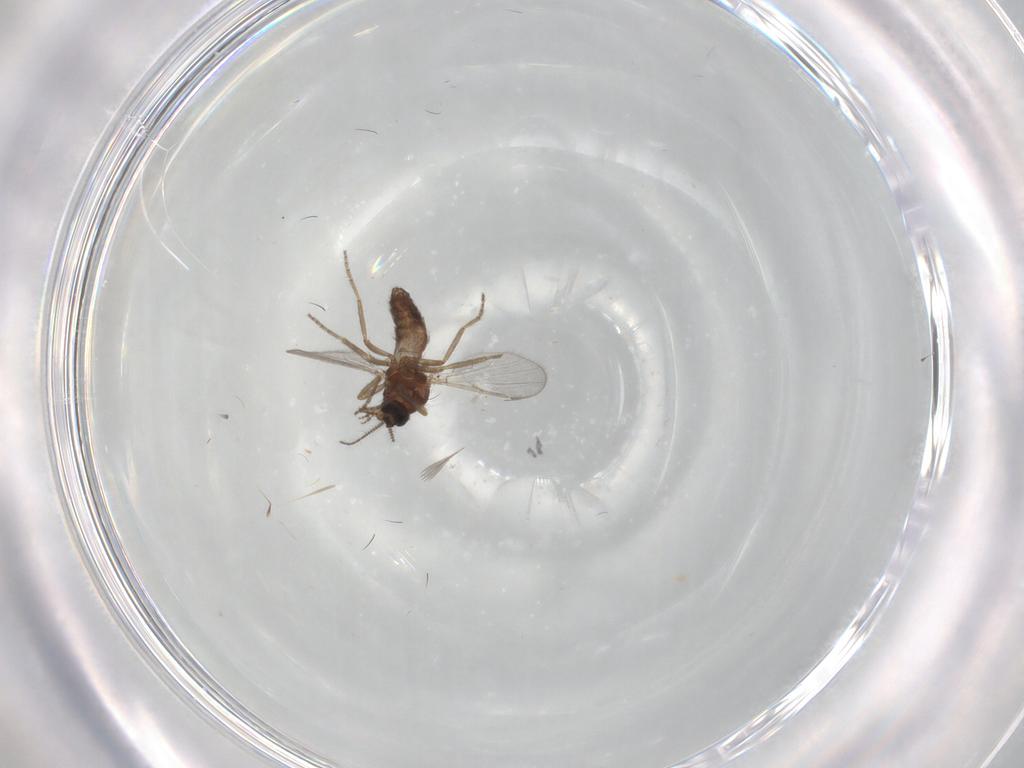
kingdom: Animalia
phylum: Arthropoda
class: Insecta
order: Diptera
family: Ceratopogonidae
